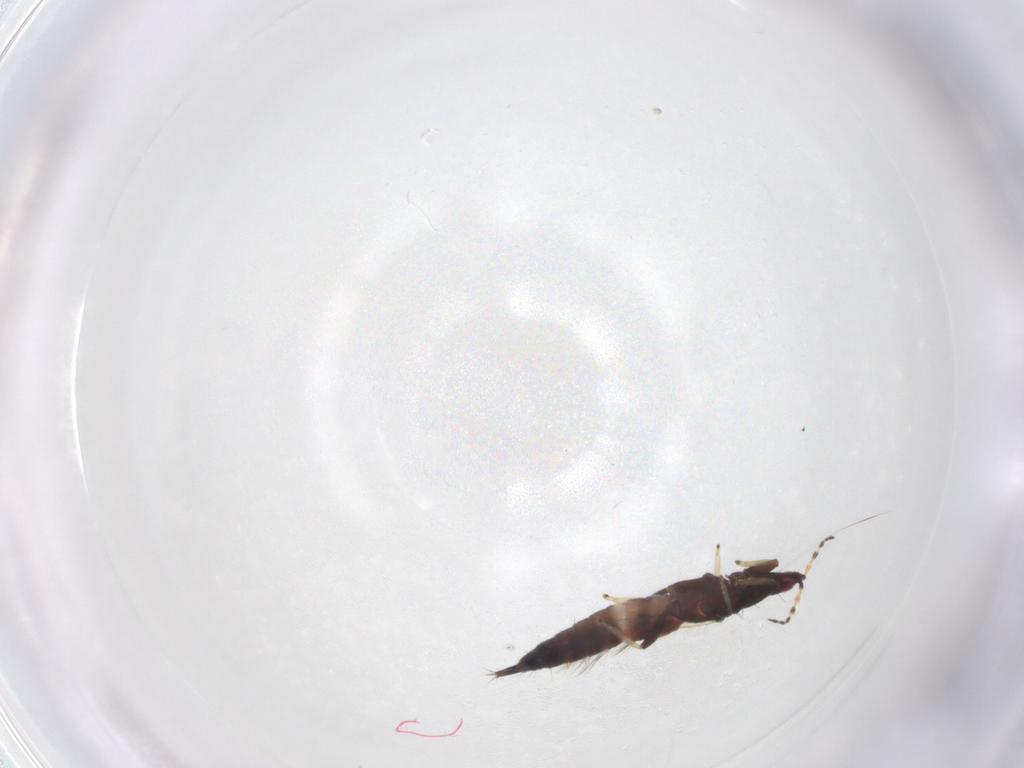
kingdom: Animalia
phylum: Arthropoda
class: Insecta
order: Thysanoptera
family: Phlaeothripidae
